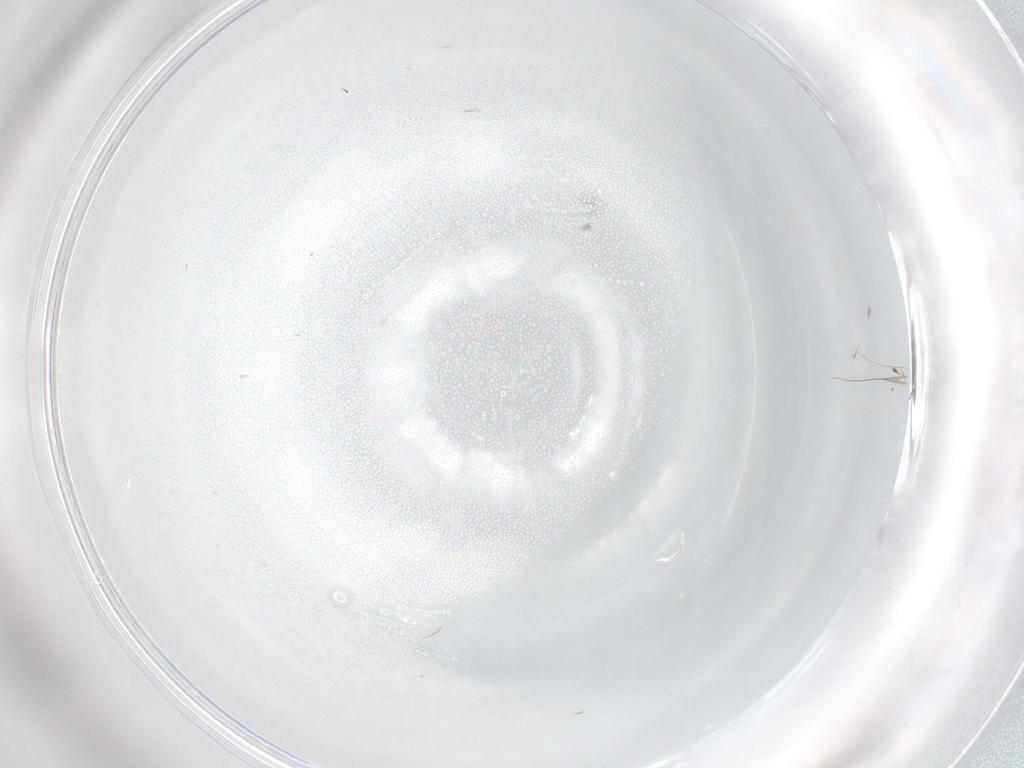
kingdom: Animalia
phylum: Arthropoda
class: Insecta
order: Diptera
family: Cecidomyiidae
